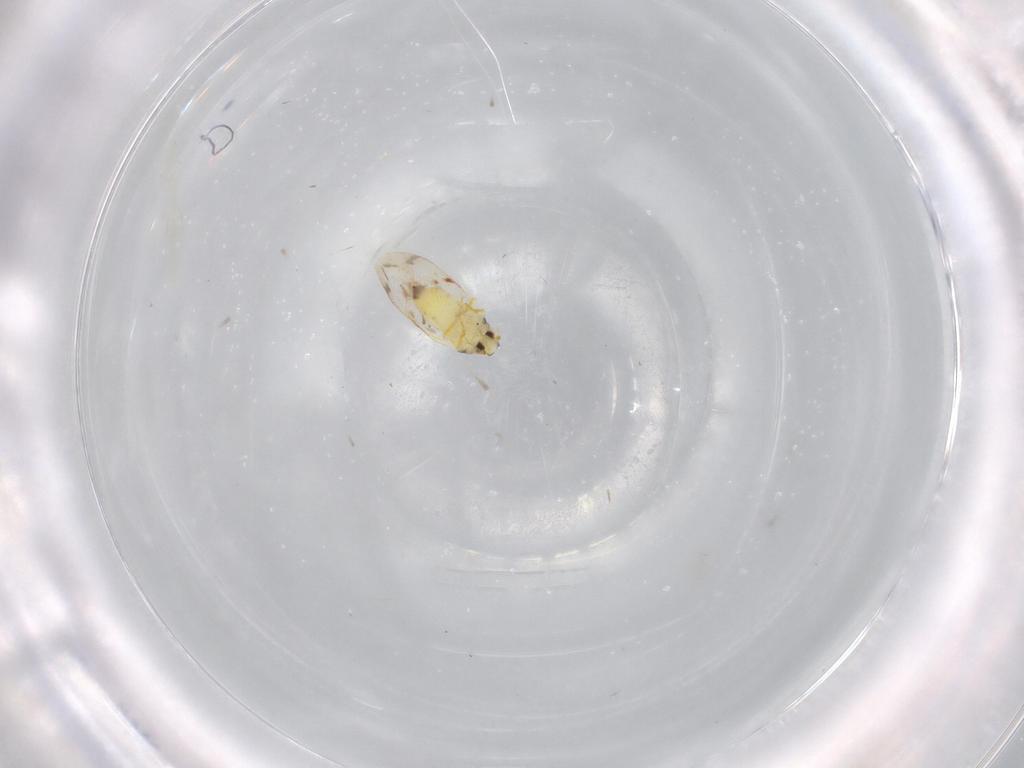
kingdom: Animalia
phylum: Arthropoda
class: Insecta
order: Hemiptera
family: Aleyrodidae
